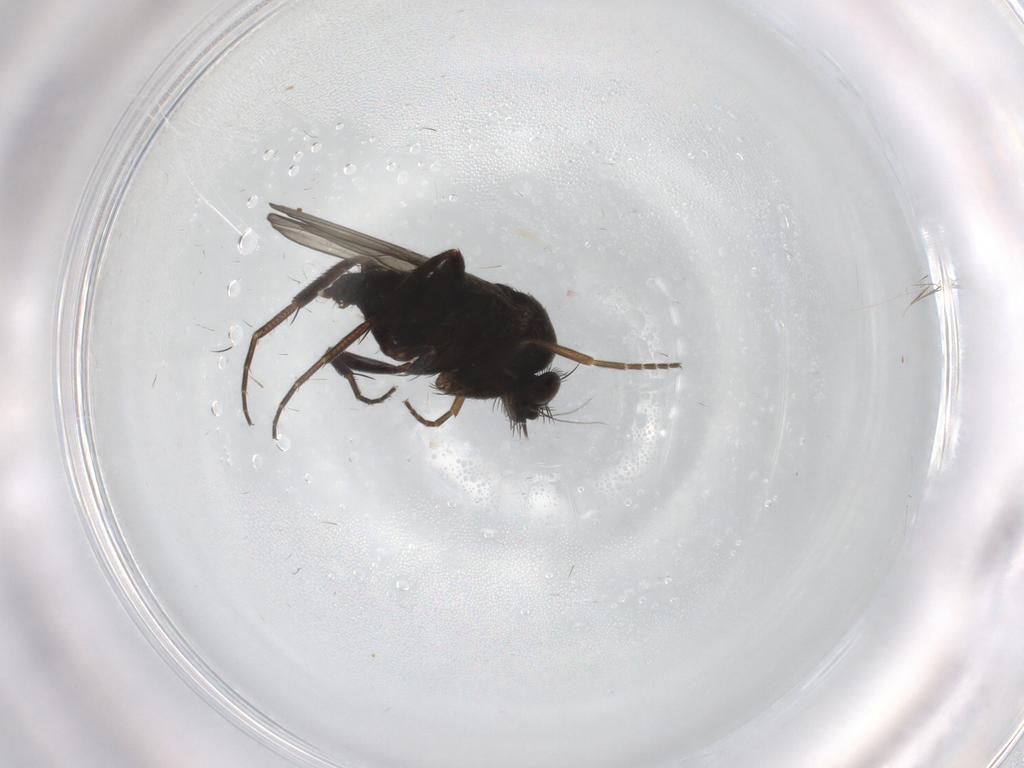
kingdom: Animalia
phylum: Arthropoda
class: Insecta
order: Diptera
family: Phoridae
